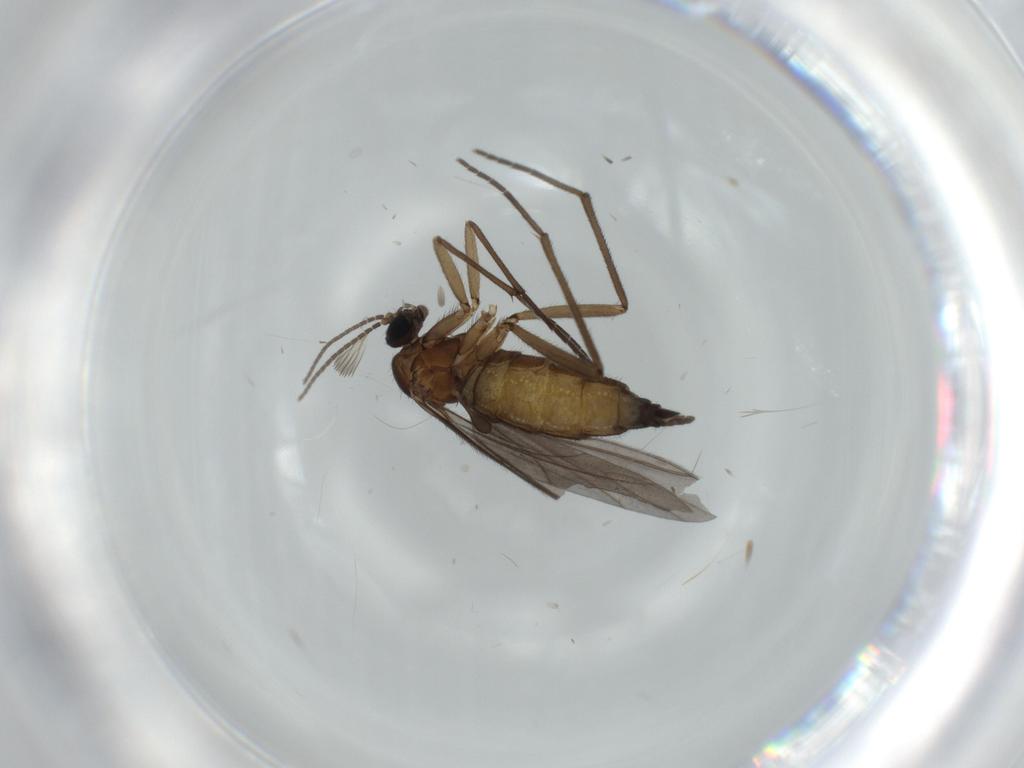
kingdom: Animalia
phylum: Arthropoda
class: Insecta
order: Diptera
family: Sciaridae
